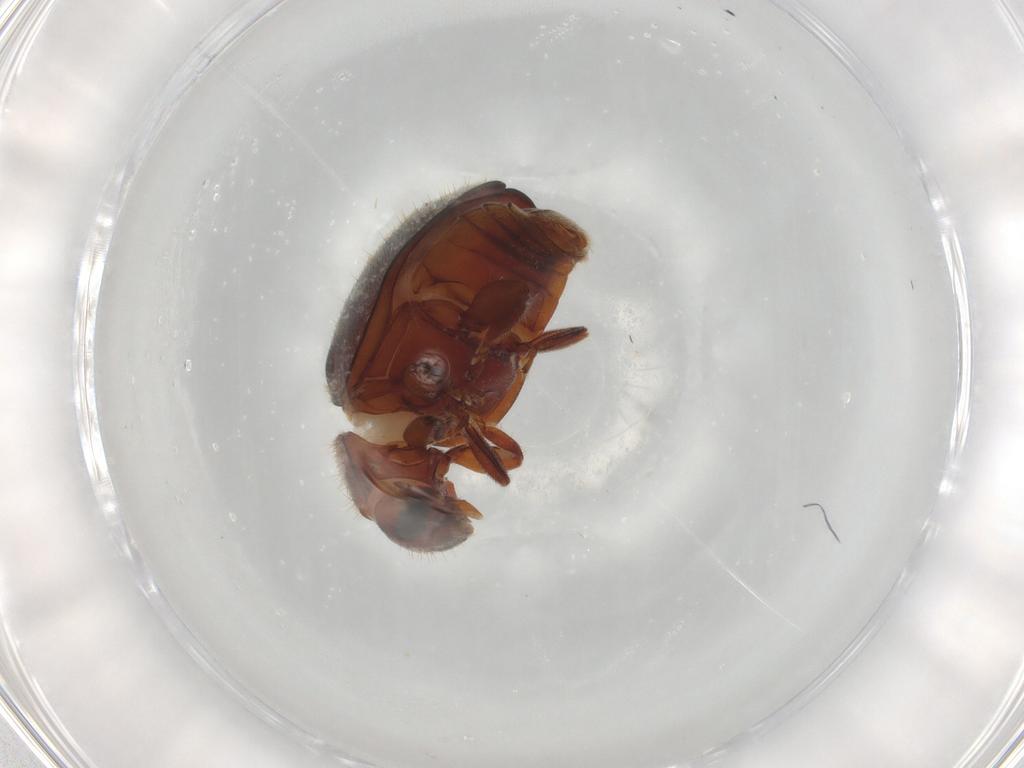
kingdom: Animalia
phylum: Arthropoda
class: Insecta
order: Coleoptera
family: Coccinellidae
